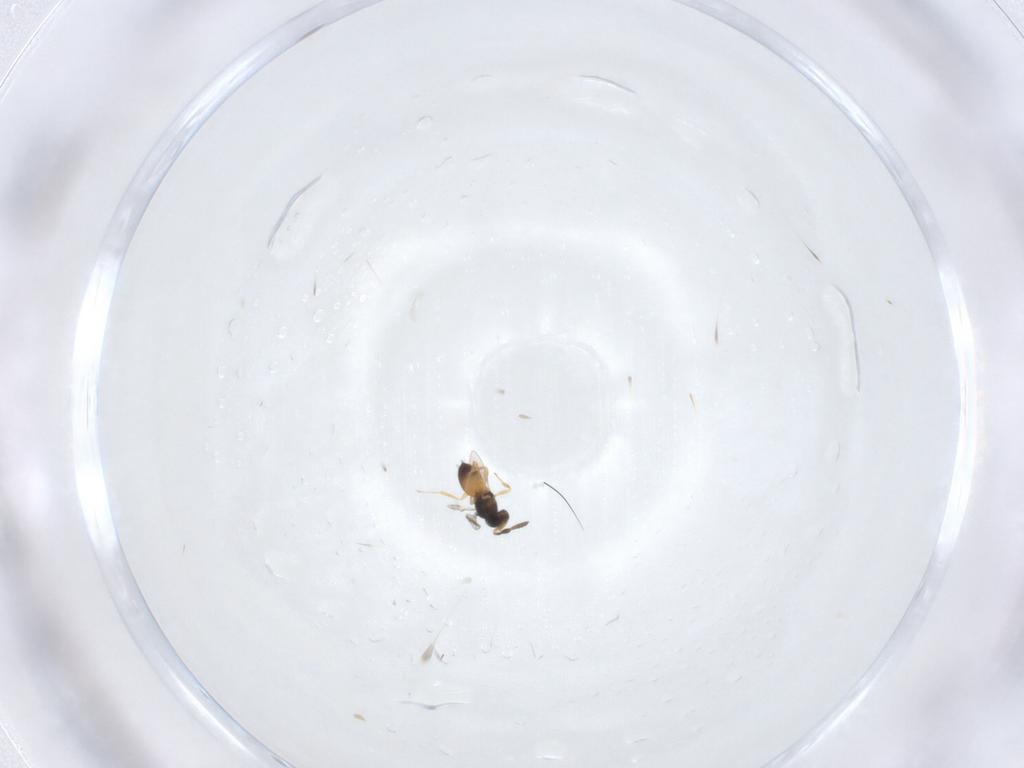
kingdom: Animalia
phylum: Arthropoda
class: Insecta
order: Hymenoptera
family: Scelionidae
